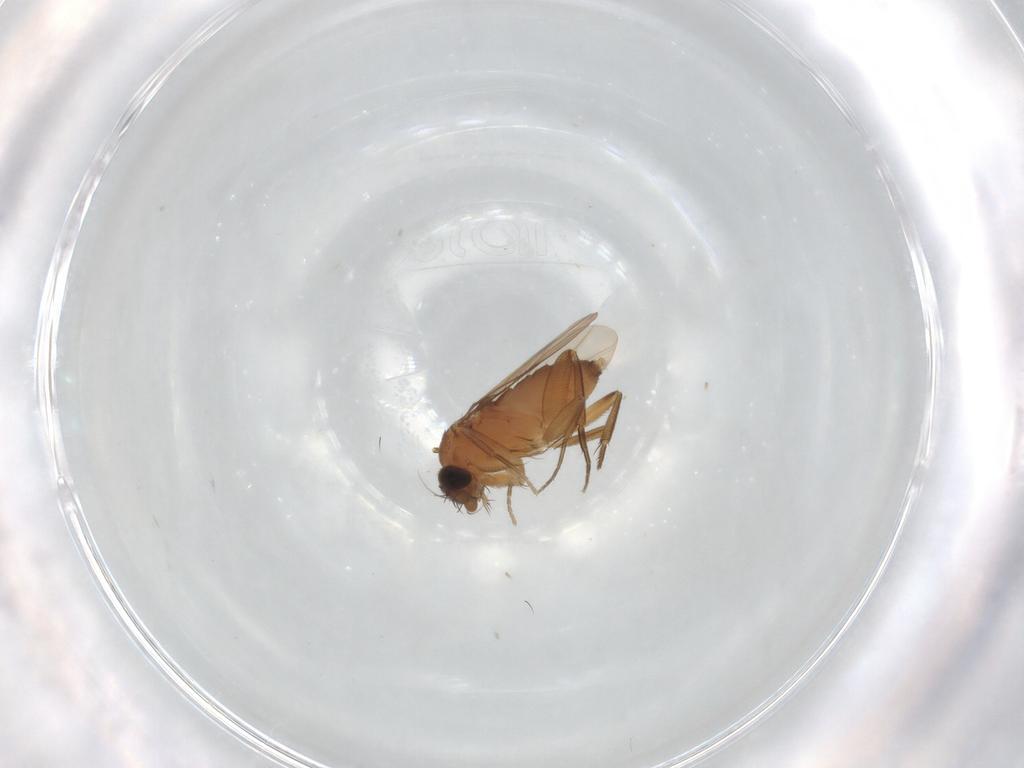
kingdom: Animalia
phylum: Arthropoda
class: Insecta
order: Diptera
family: Phoridae
